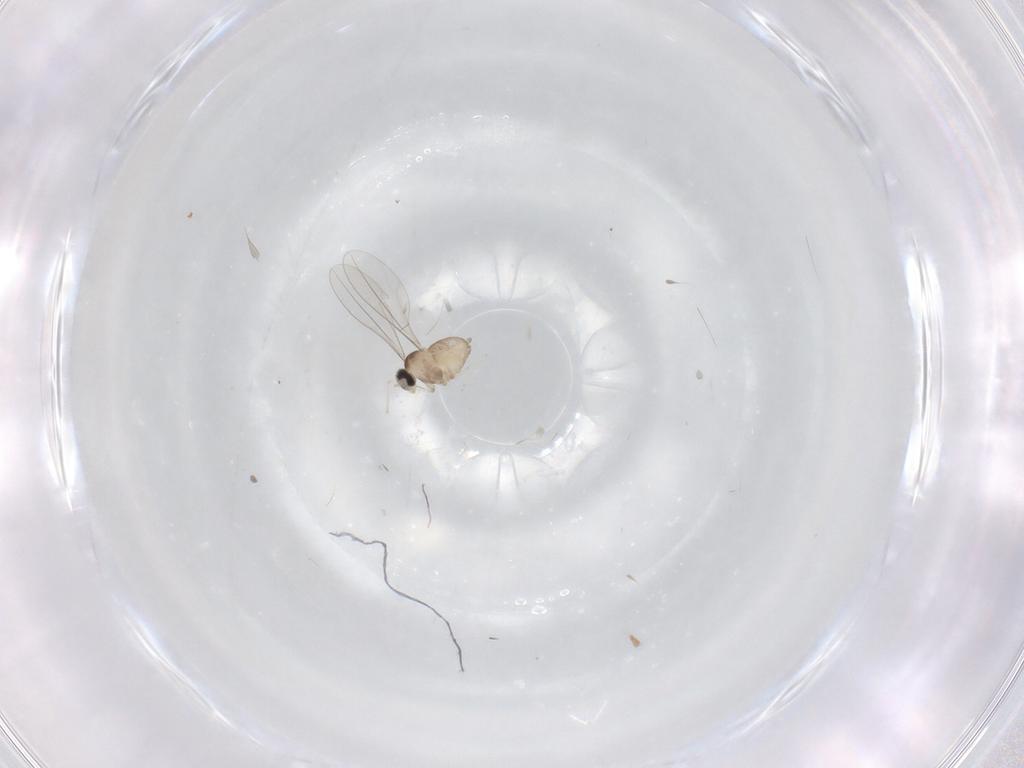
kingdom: Animalia
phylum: Arthropoda
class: Insecta
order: Diptera
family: Cecidomyiidae
